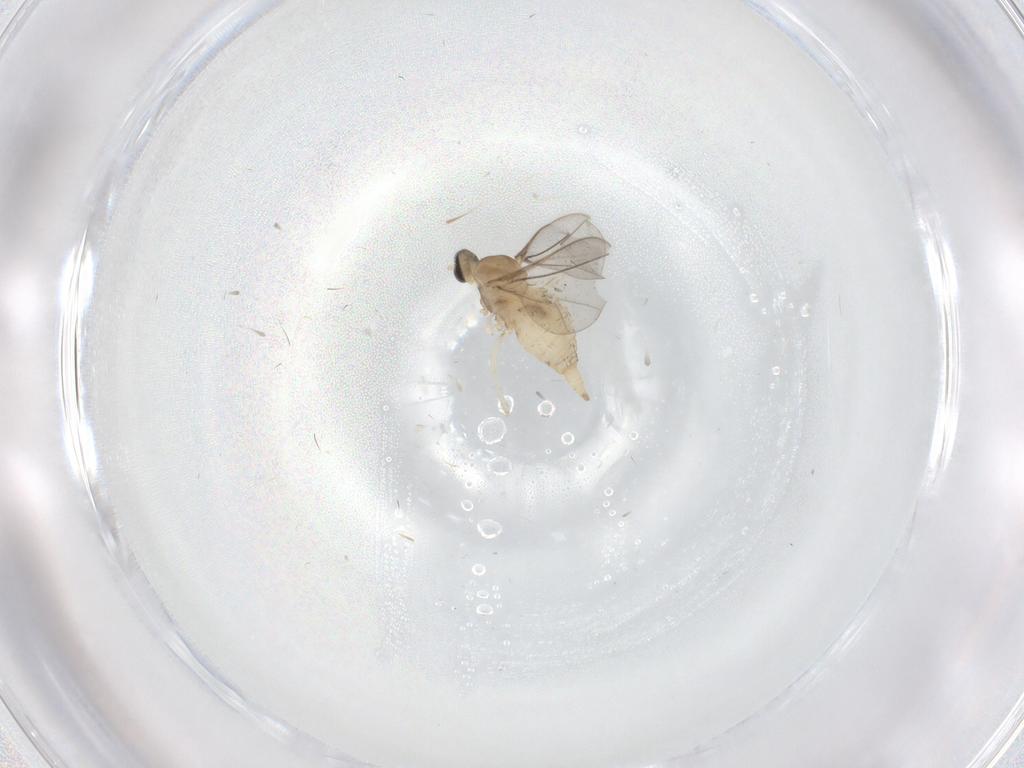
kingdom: Animalia
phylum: Arthropoda
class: Insecta
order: Diptera
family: Cecidomyiidae
